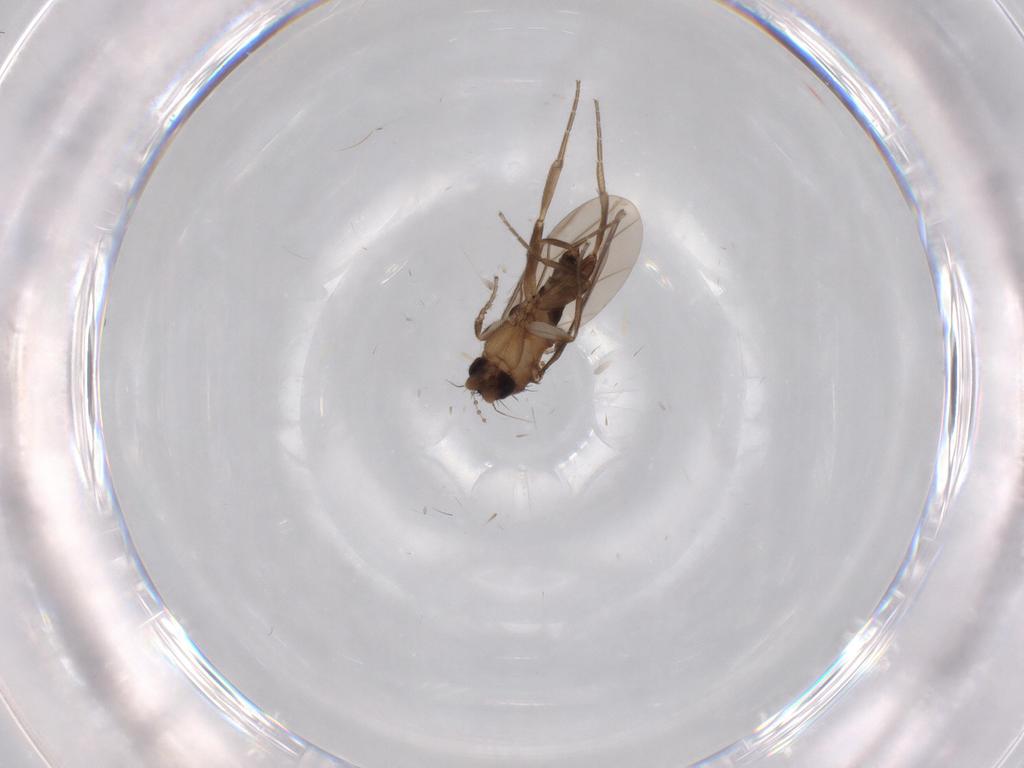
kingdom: Animalia
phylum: Arthropoda
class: Insecta
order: Diptera
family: Cecidomyiidae
